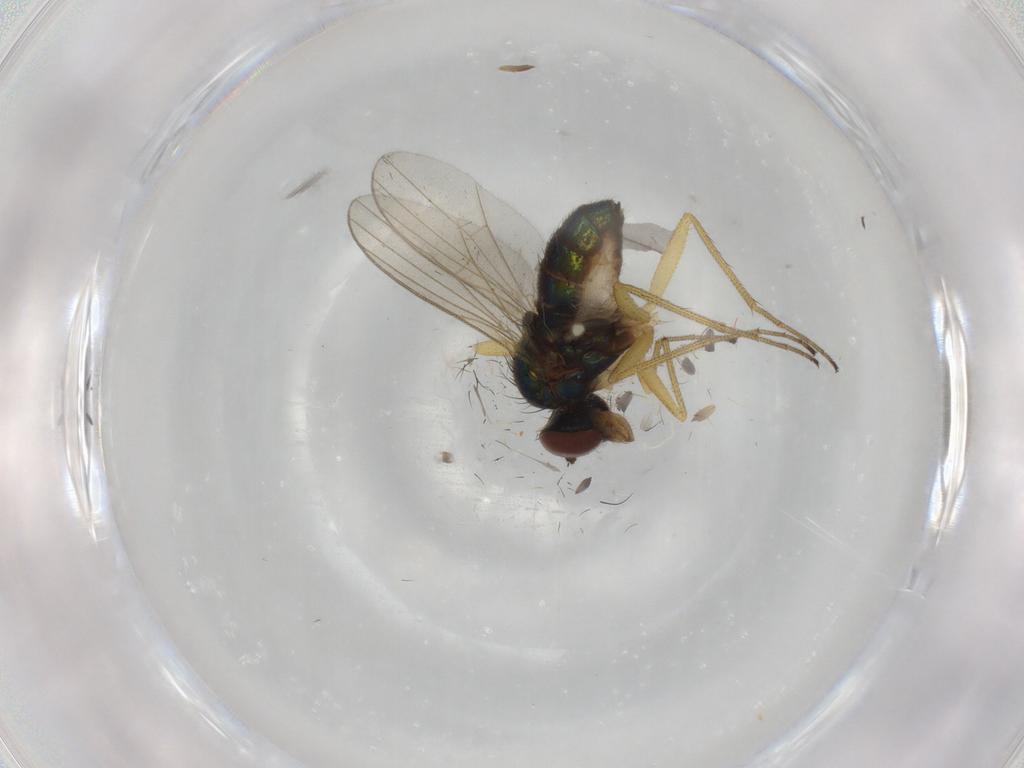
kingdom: Animalia
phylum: Arthropoda
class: Insecta
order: Diptera
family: Dolichopodidae
